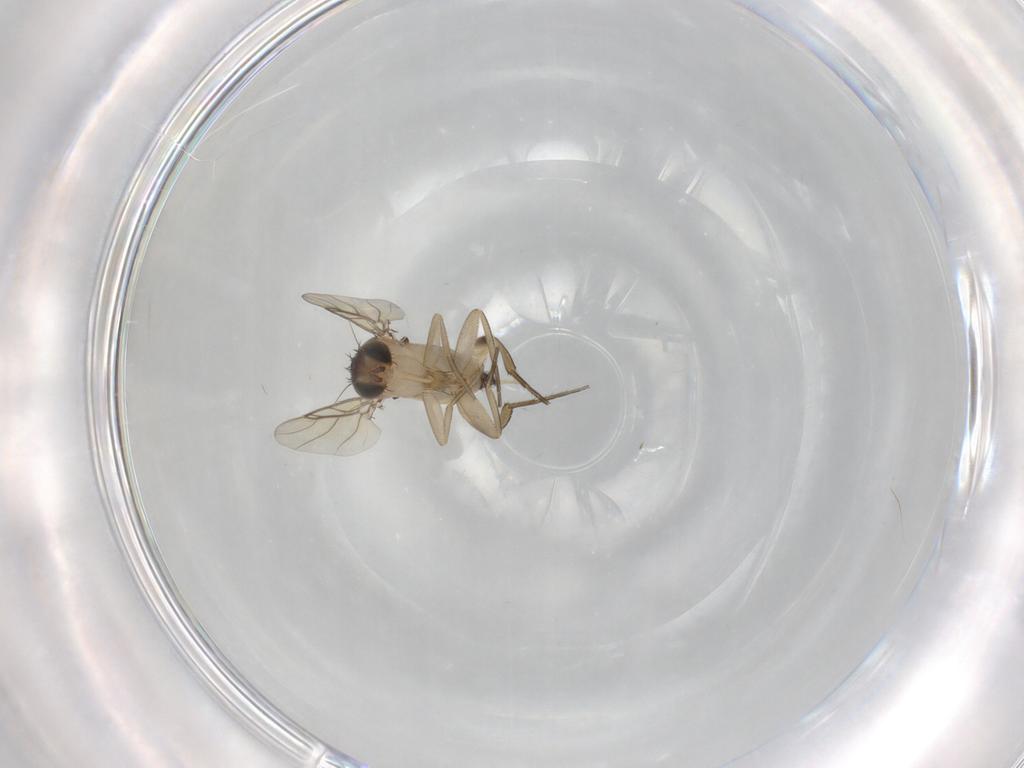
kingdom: Animalia
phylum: Arthropoda
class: Insecta
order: Diptera
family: Phoridae
